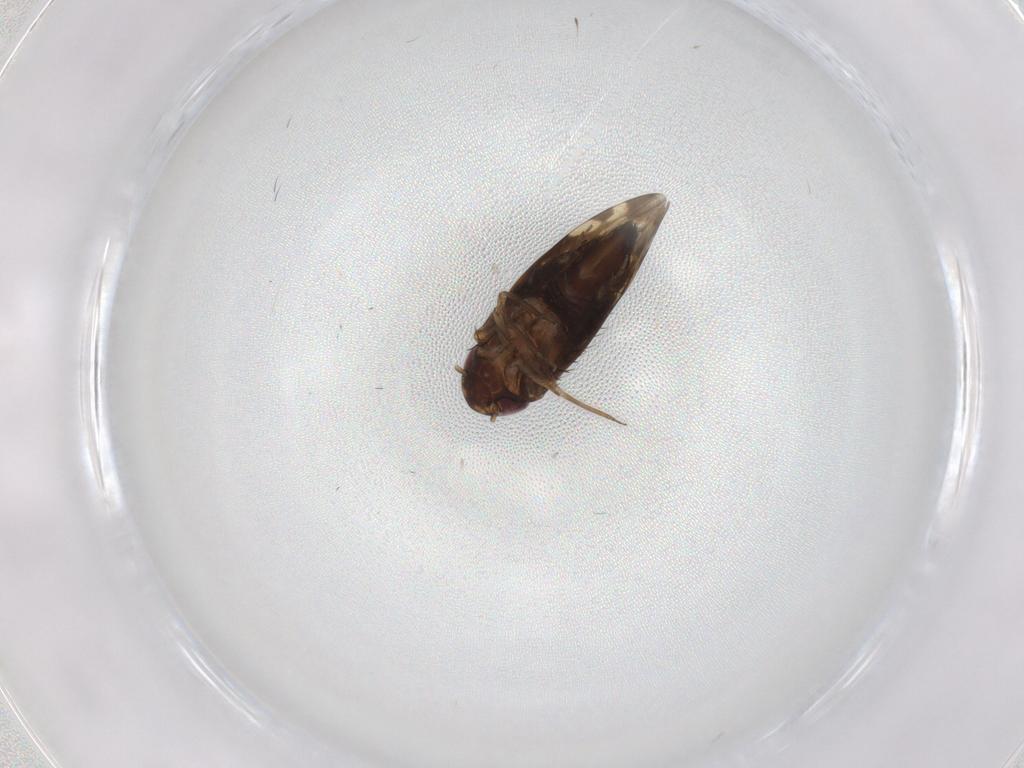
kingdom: Animalia
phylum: Arthropoda
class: Insecta
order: Hemiptera
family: Cicadellidae
